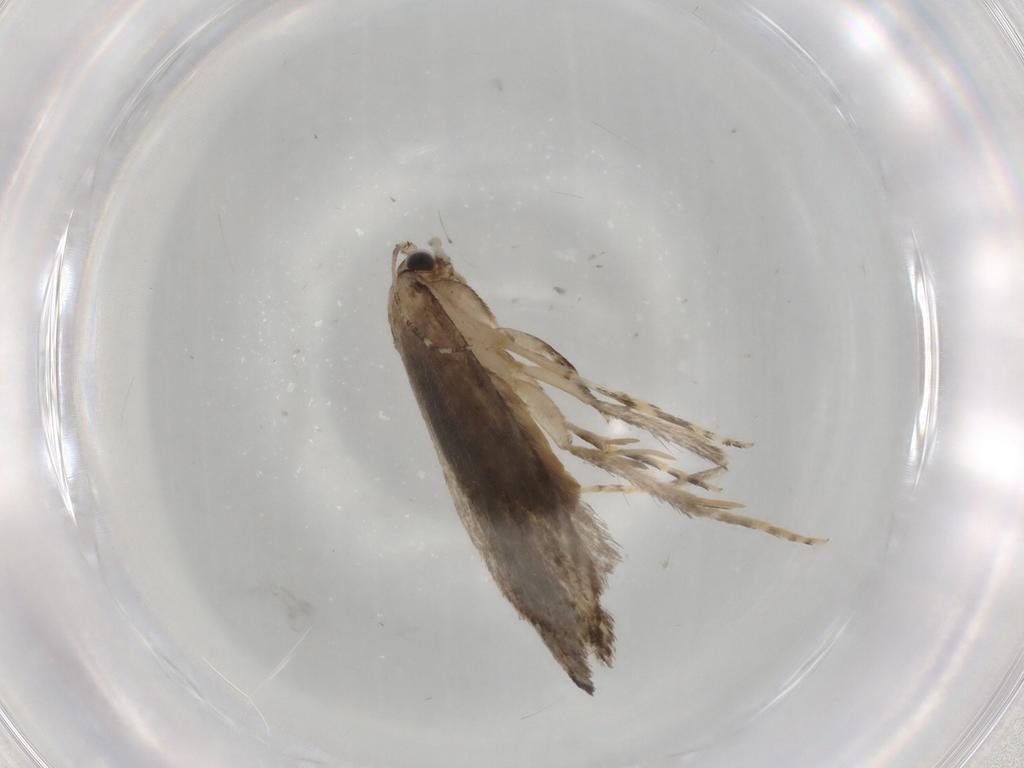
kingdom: Animalia
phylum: Arthropoda
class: Insecta
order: Lepidoptera
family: Tineidae
